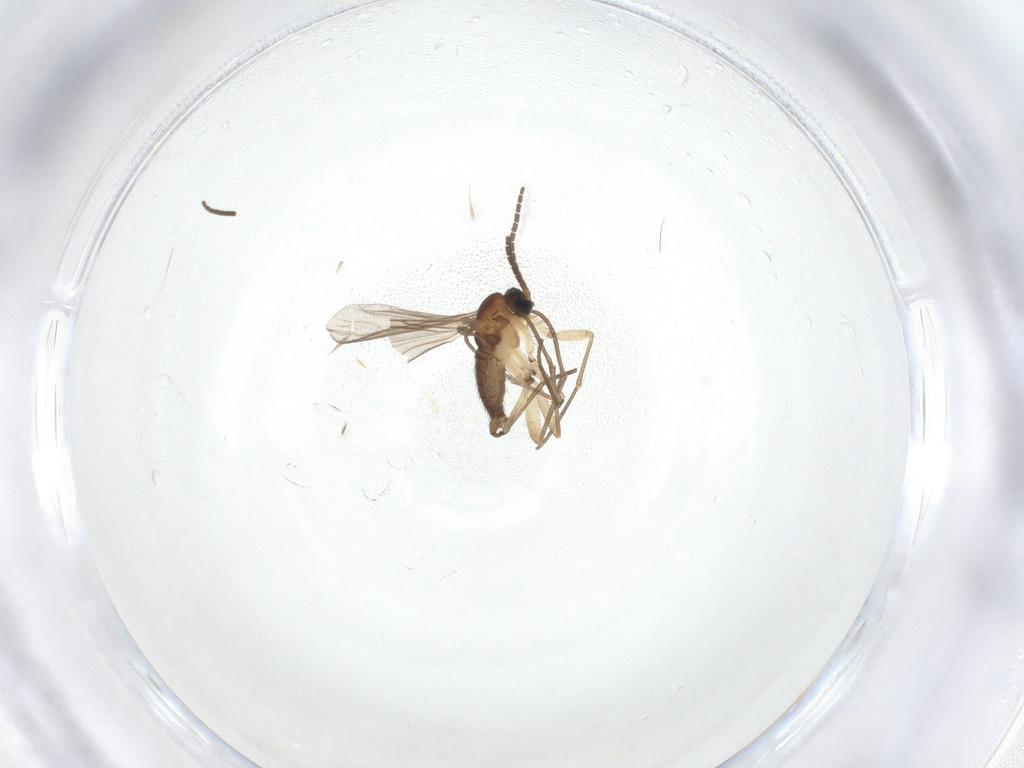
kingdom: Animalia
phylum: Arthropoda
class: Insecta
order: Diptera
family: Sciaridae
